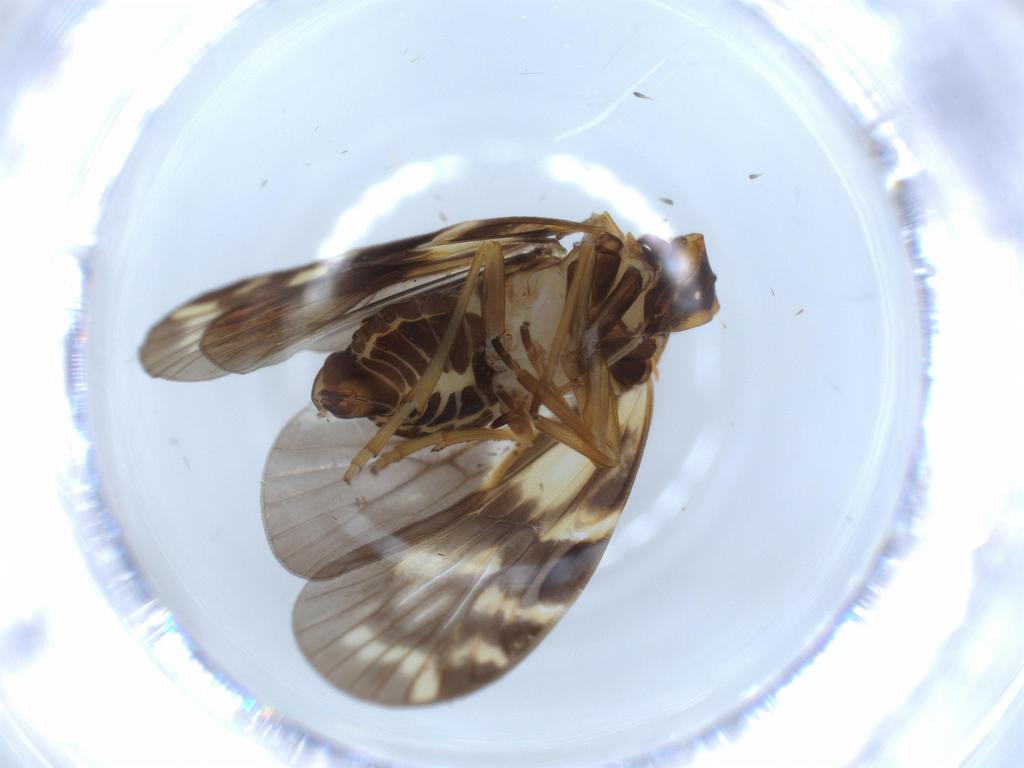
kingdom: Animalia
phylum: Arthropoda
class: Insecta
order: Hemiptera
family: Cixiidae
